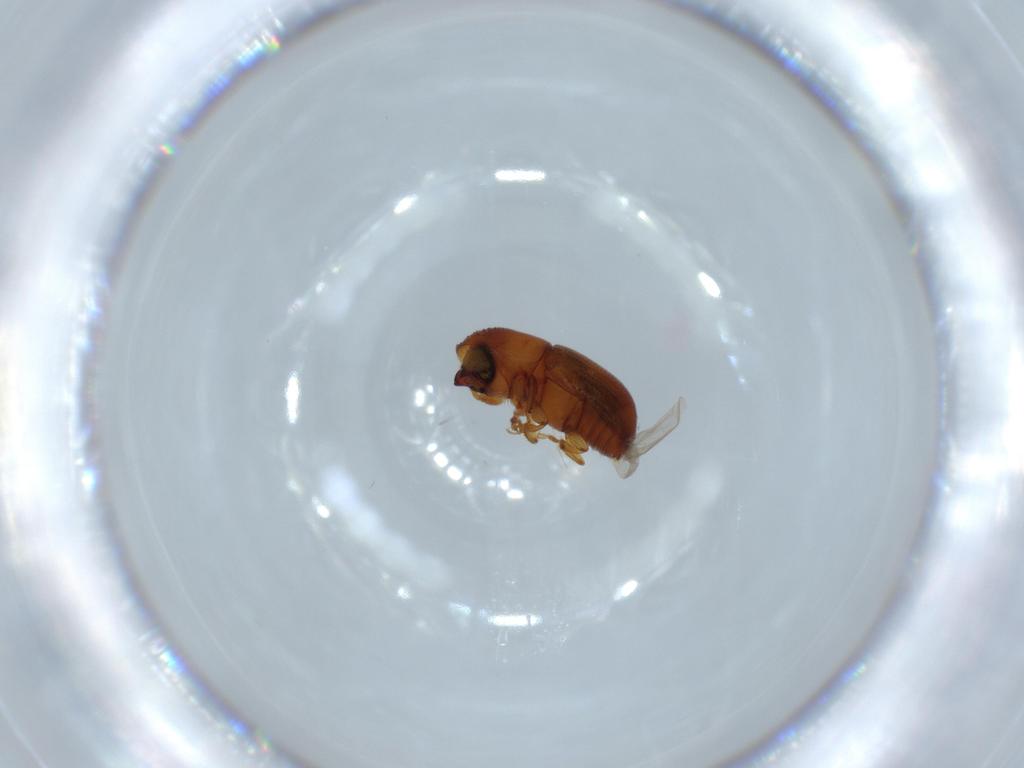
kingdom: Animalia
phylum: Arthropoda
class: Insecta
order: Coleoptera
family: Curculionidae
